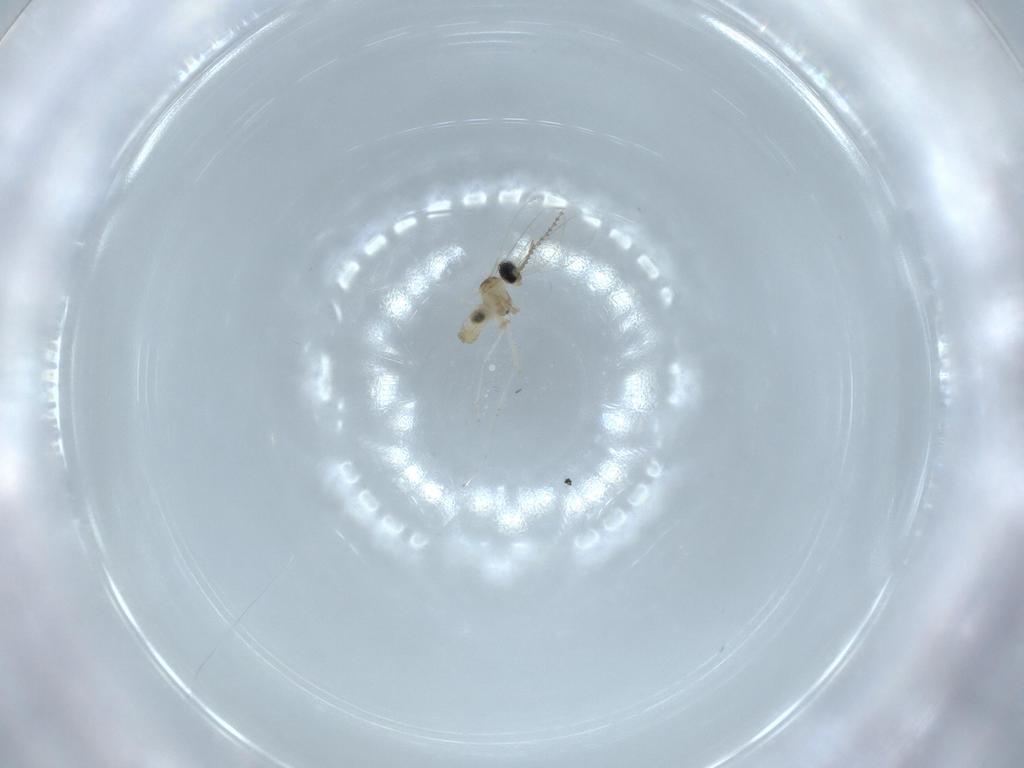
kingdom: Animalia
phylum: Arthropoda
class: Insecta
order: Diptera
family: Cecidomyiidae
